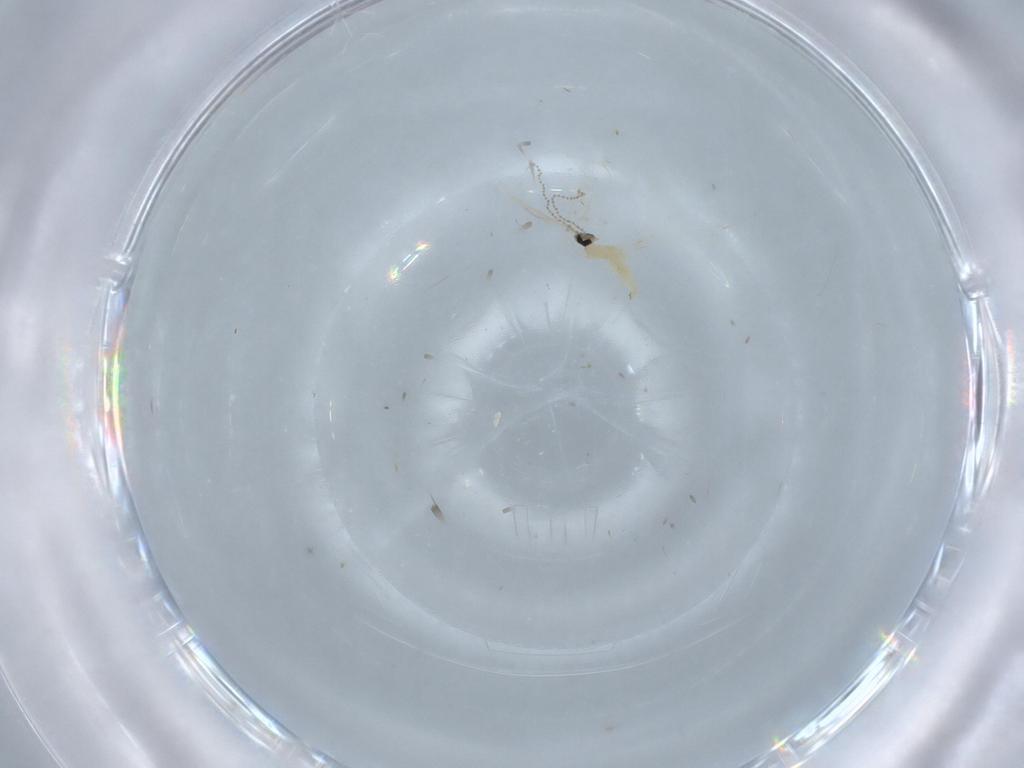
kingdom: Animalia
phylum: Arthropoda
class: Insecta
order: Diptera
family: Cecidomyiidae
